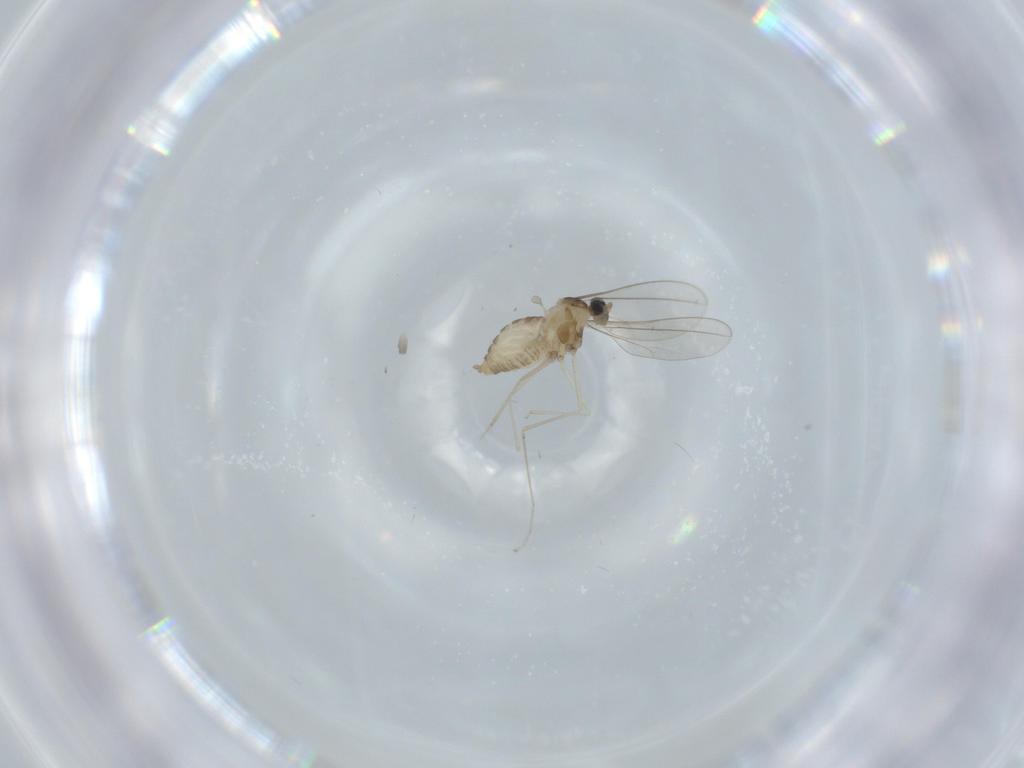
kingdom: Animalia
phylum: Arthropoda
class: Insecta
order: Diptera
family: Cecidomyiidae
